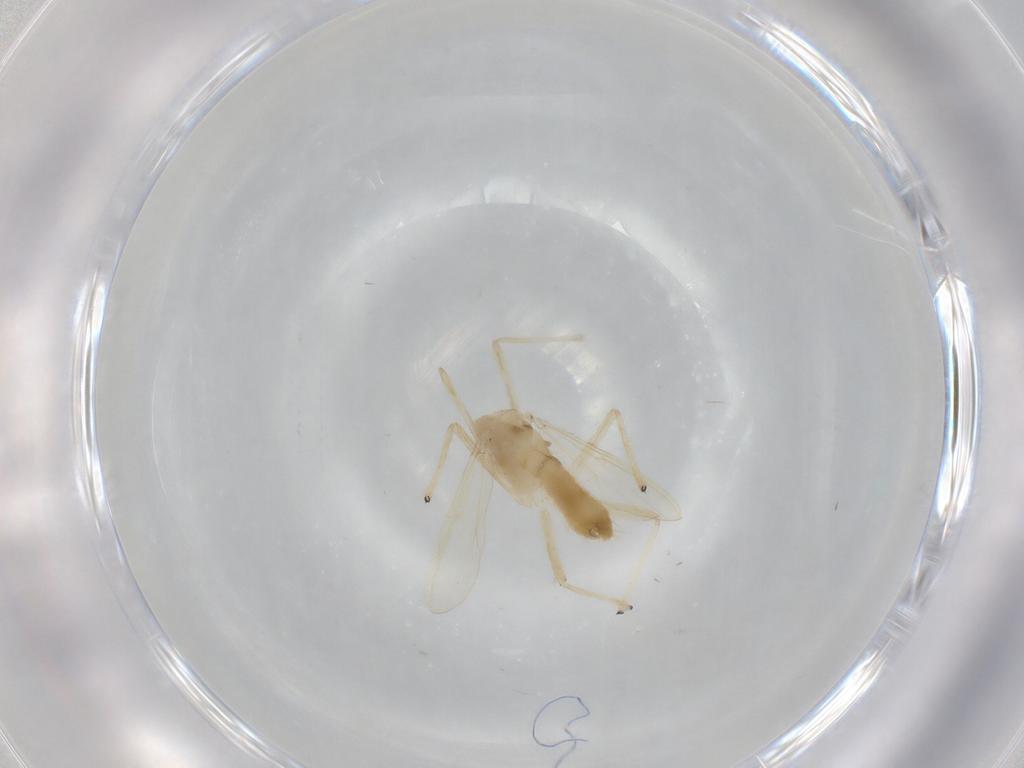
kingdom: Animalia
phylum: Arthropoda
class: Insecta
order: Diptera
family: Chironomidae
